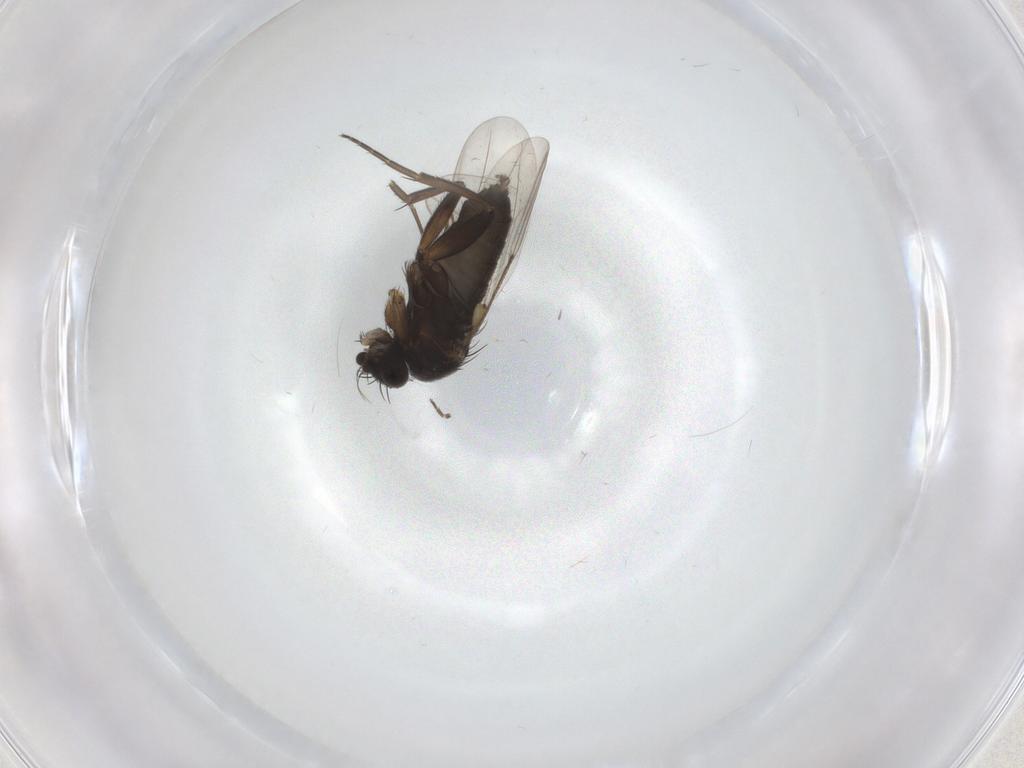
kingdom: Animalia
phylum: Arthropoda
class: Insecta
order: Diptera
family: Phoridae
